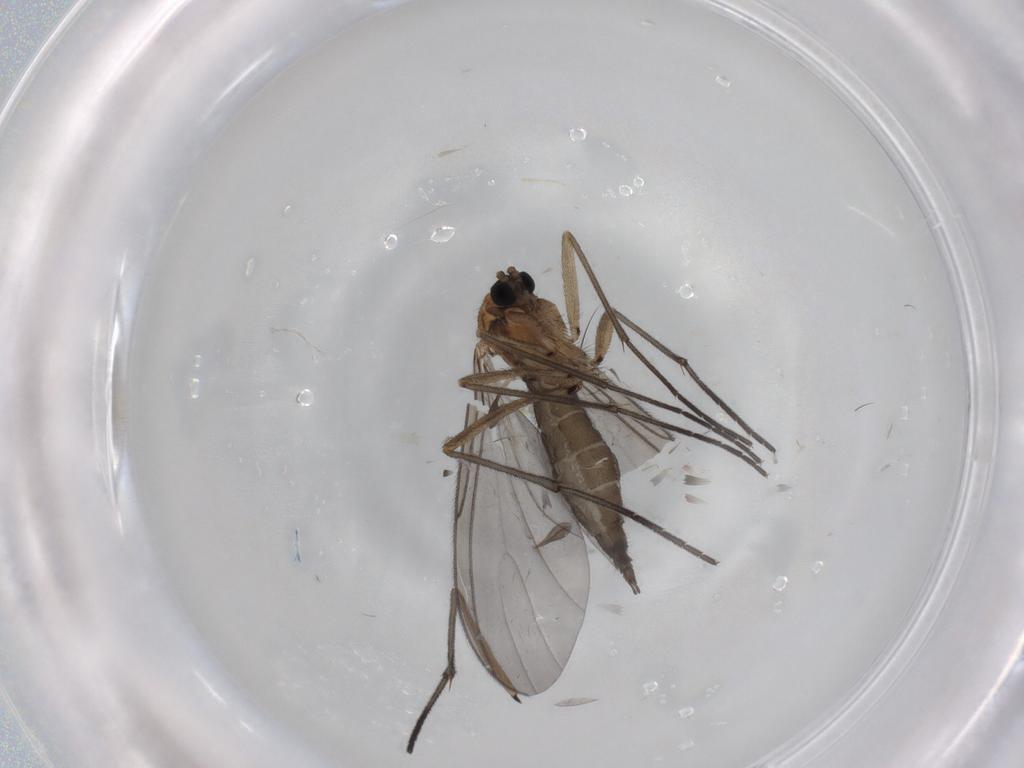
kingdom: Animalia
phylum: Arthropoda
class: Insecta
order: Diptera
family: Sciaridae
